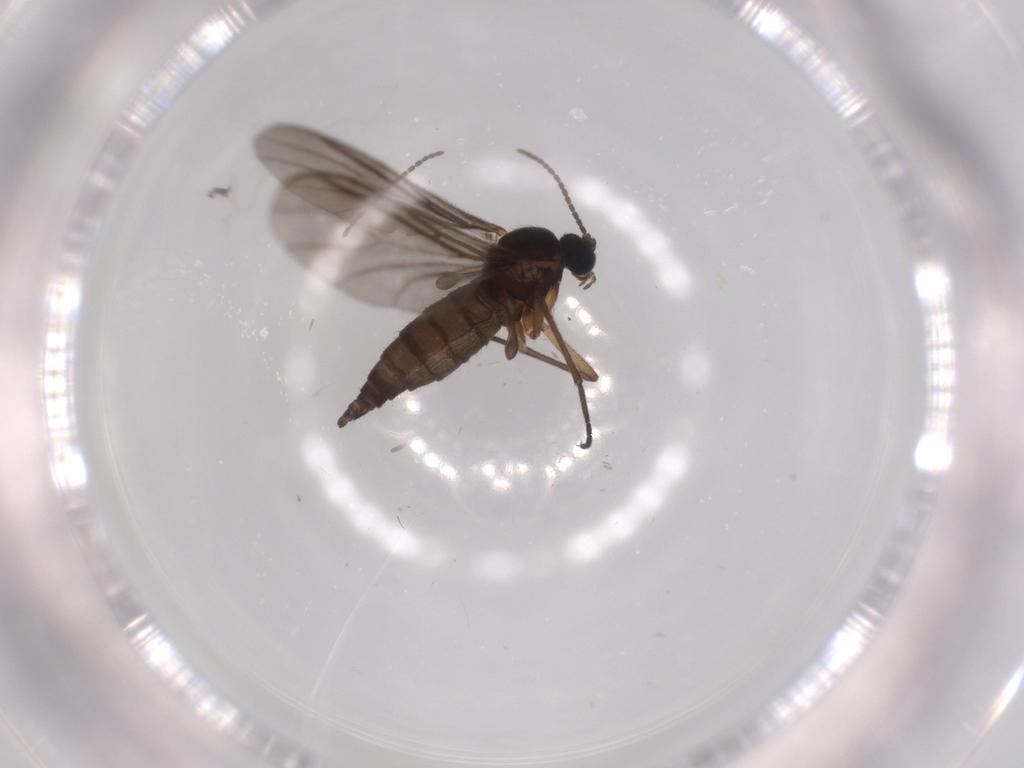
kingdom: Animalia
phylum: Arthropoda
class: Insecta
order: Diptera
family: Sciaridae
